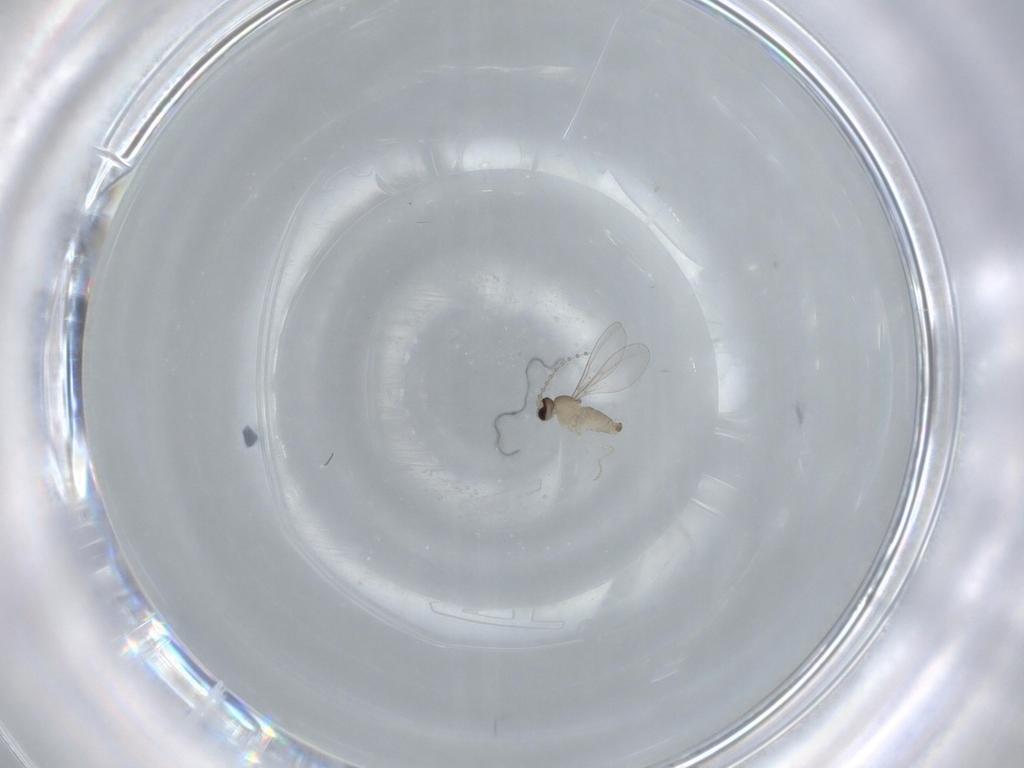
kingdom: Animalia
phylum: Arthropoda
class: Insecta
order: Diptera
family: Cecidomyiidae
